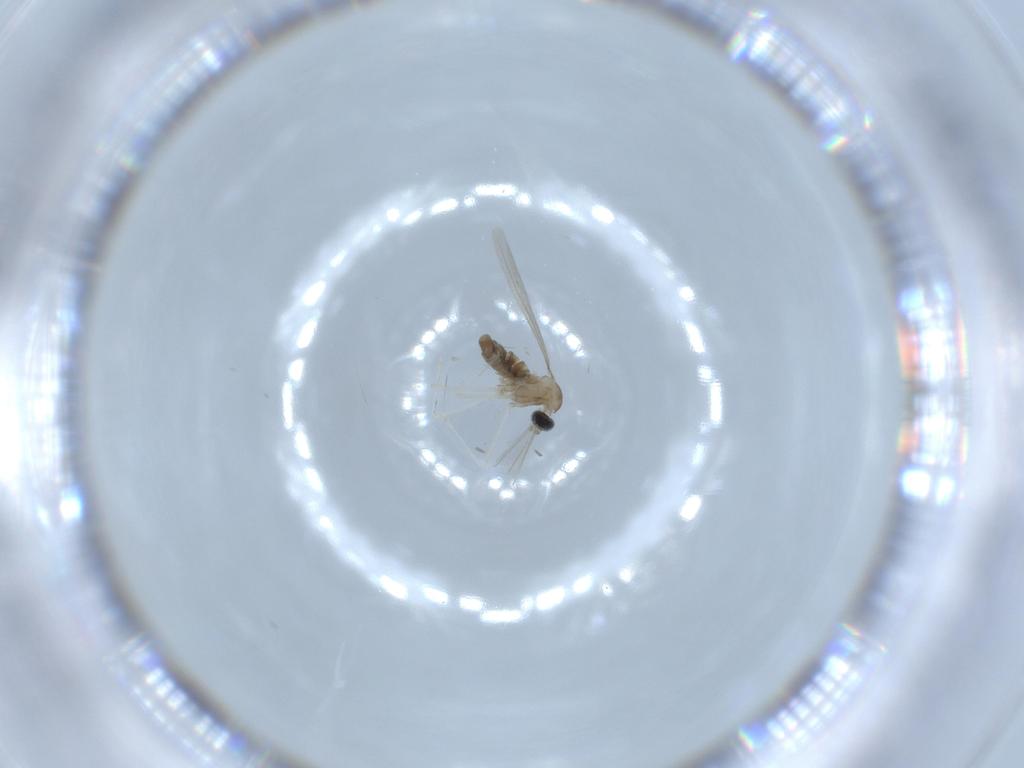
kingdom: Animalia
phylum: Arthropoda
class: Insecta
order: Diptera
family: Cecidomyiidae
